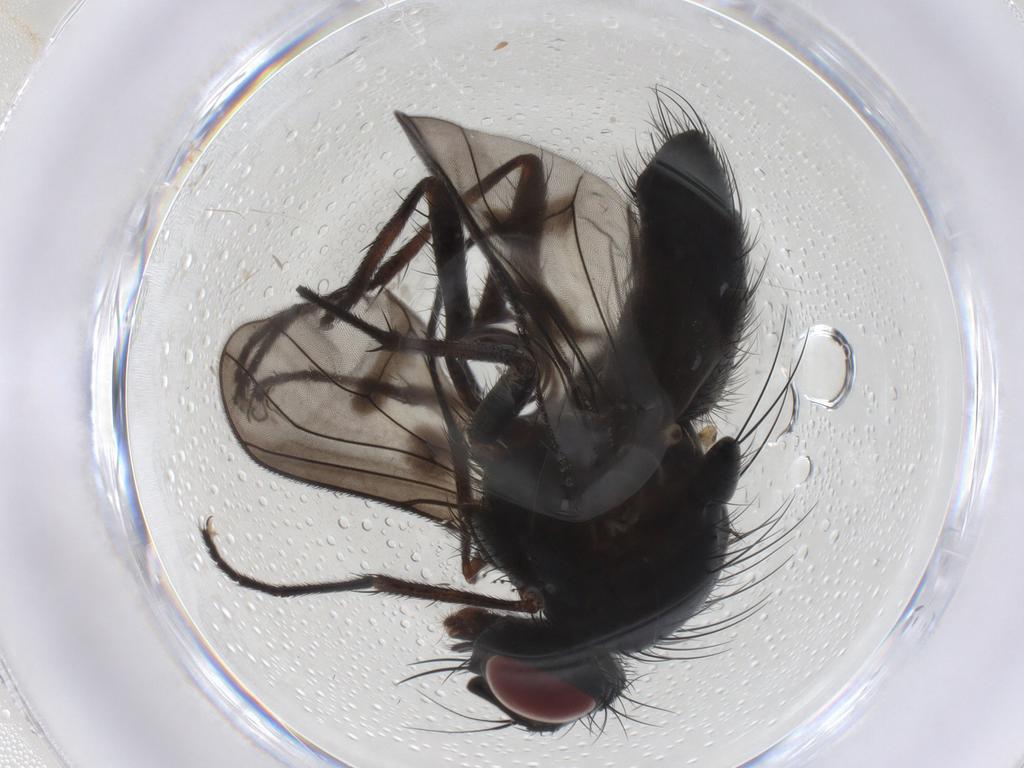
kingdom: Animalia
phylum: Arthropoda
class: Insecta
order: Diptera
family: Muscidae
